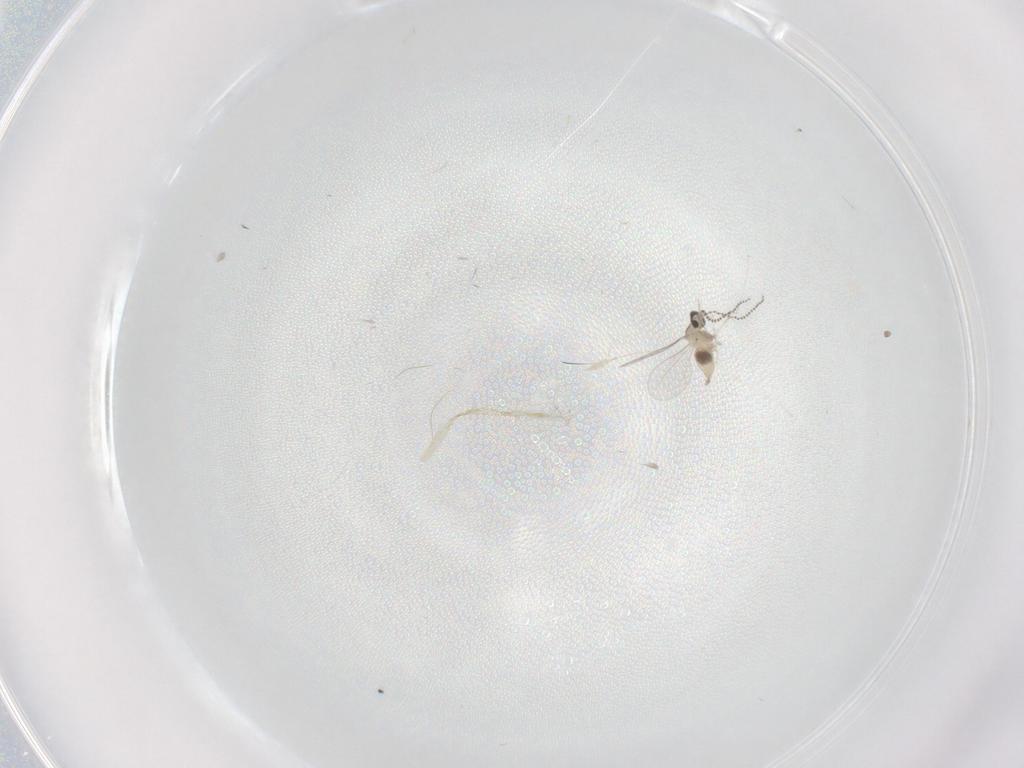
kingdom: Animalia
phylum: Arthropoda
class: Insecta
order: Diptera
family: Cecidomyiidae
